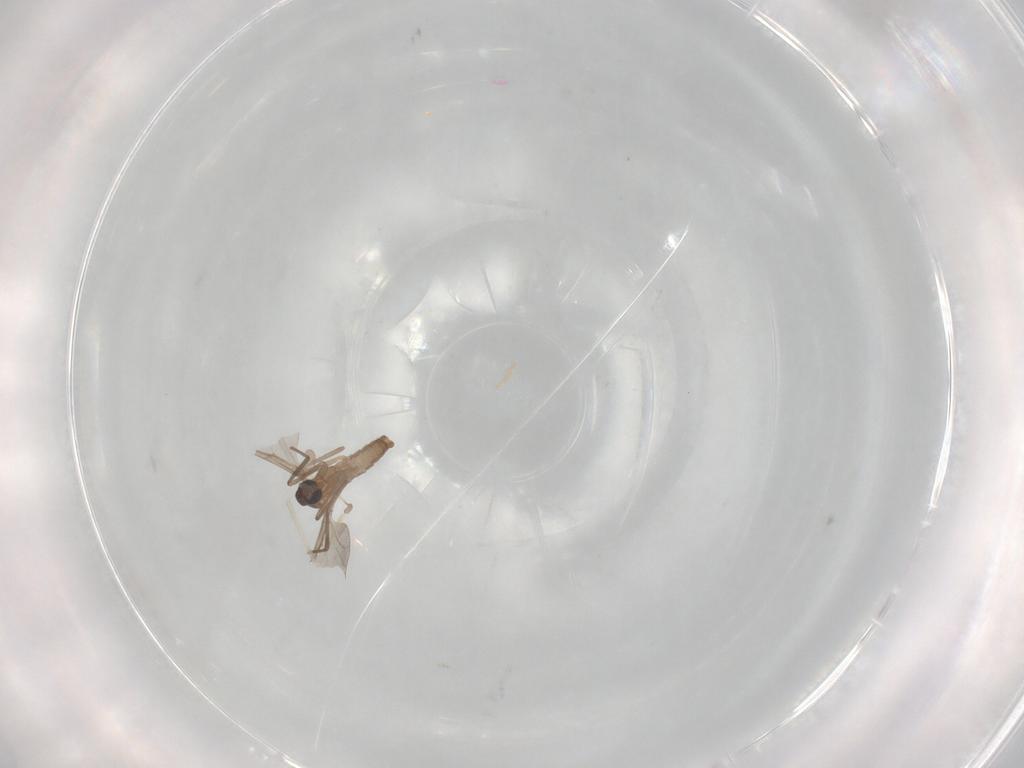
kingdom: Animalia
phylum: Arthropoda
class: Insecta
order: Diptera
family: Cecidomyiidae
